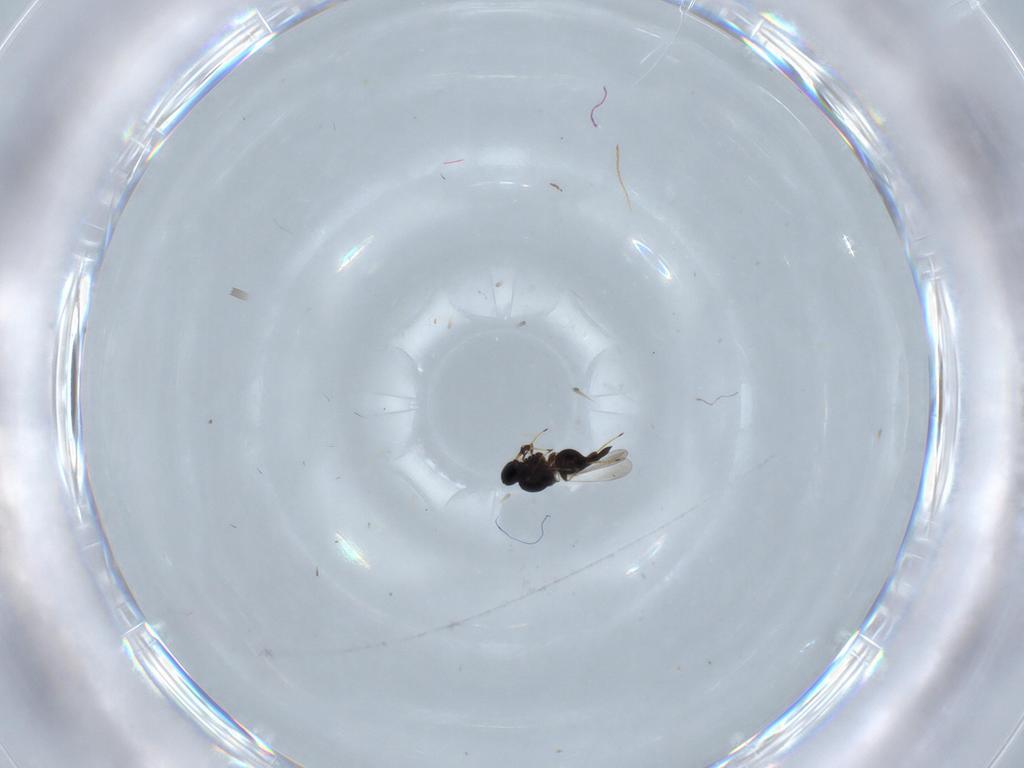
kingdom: Animalia
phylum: Arthropoda
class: Insecta
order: Hymenoptera
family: Platygastridae
